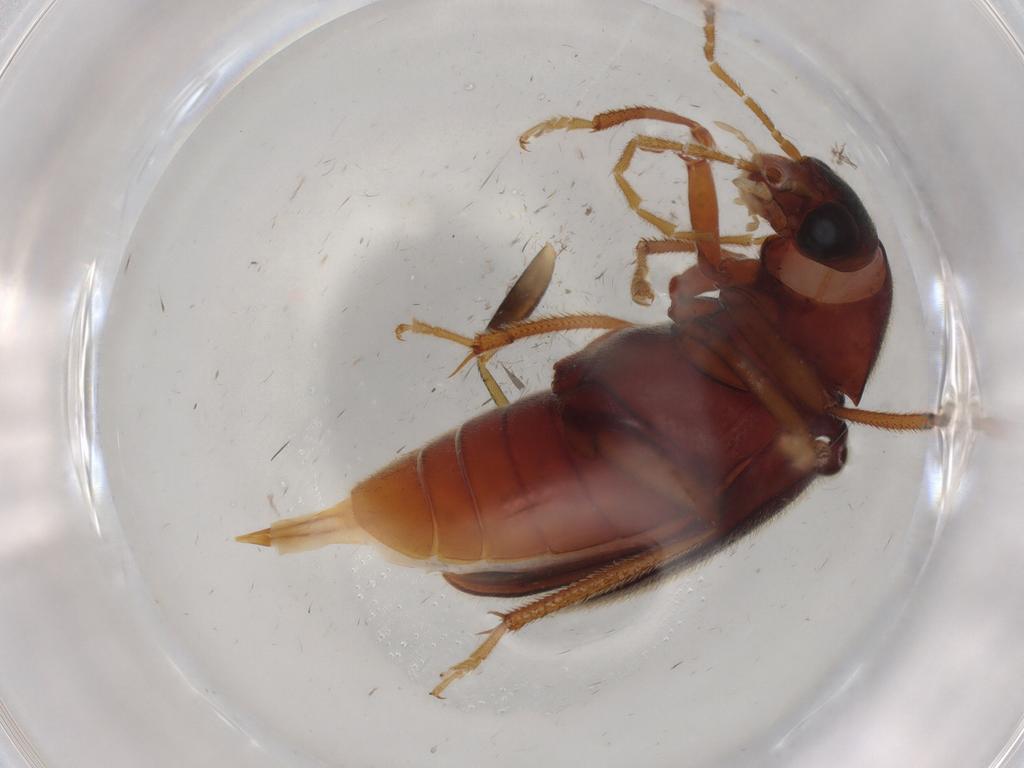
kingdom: Animalia
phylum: Arthropoda
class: Insecta
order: Coleoptera
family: Ptilodactylidae
